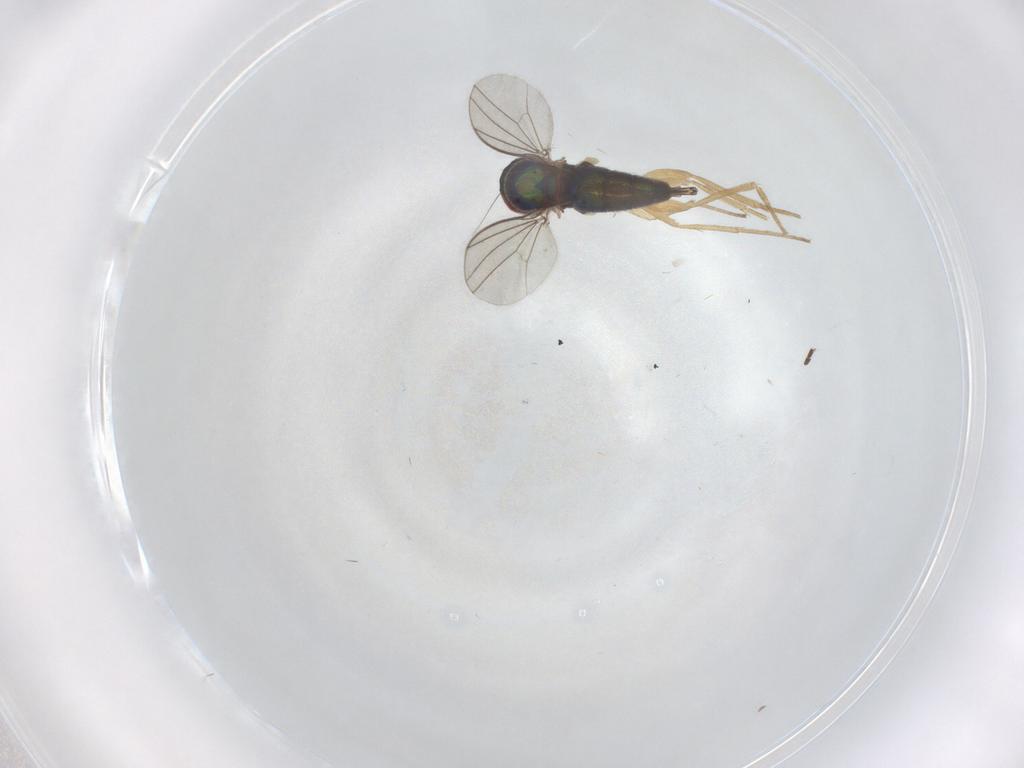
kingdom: Animalia
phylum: Arthropoda
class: Insecta
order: Diptera
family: Dolichopodidae
